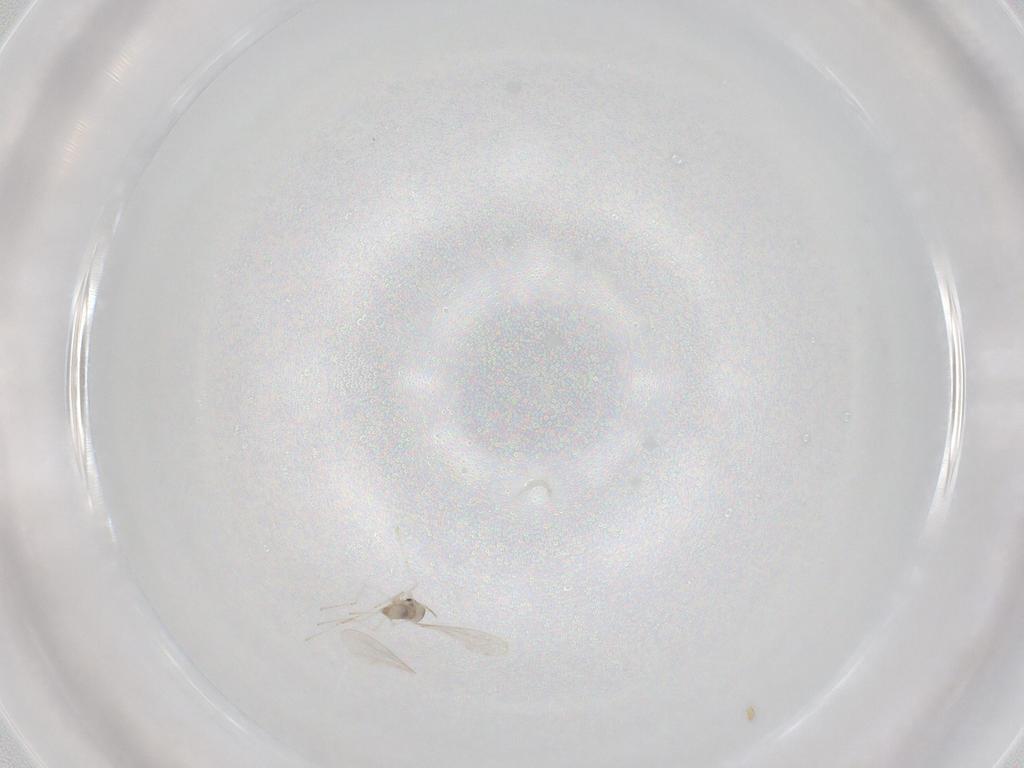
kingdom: Animalia
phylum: Arthropoda
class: Insecta
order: Diptera
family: Cecidomyiidae
